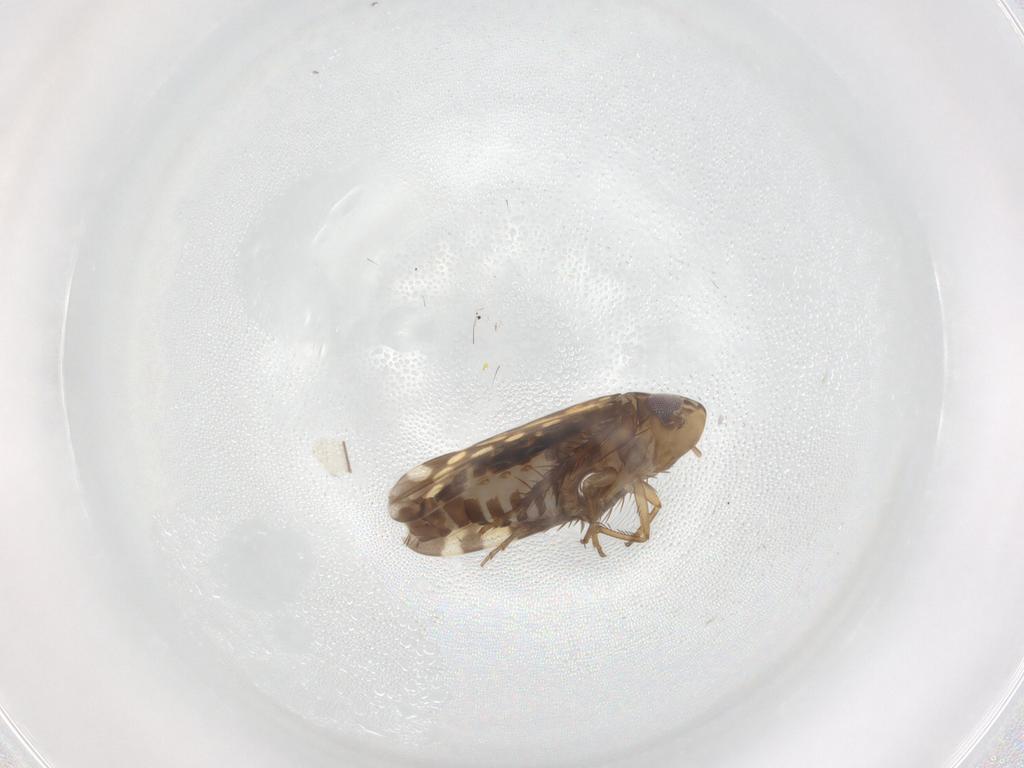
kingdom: Animalia
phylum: Arthropoda
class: Insecta
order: Hemiptera
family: Cicadellidae
